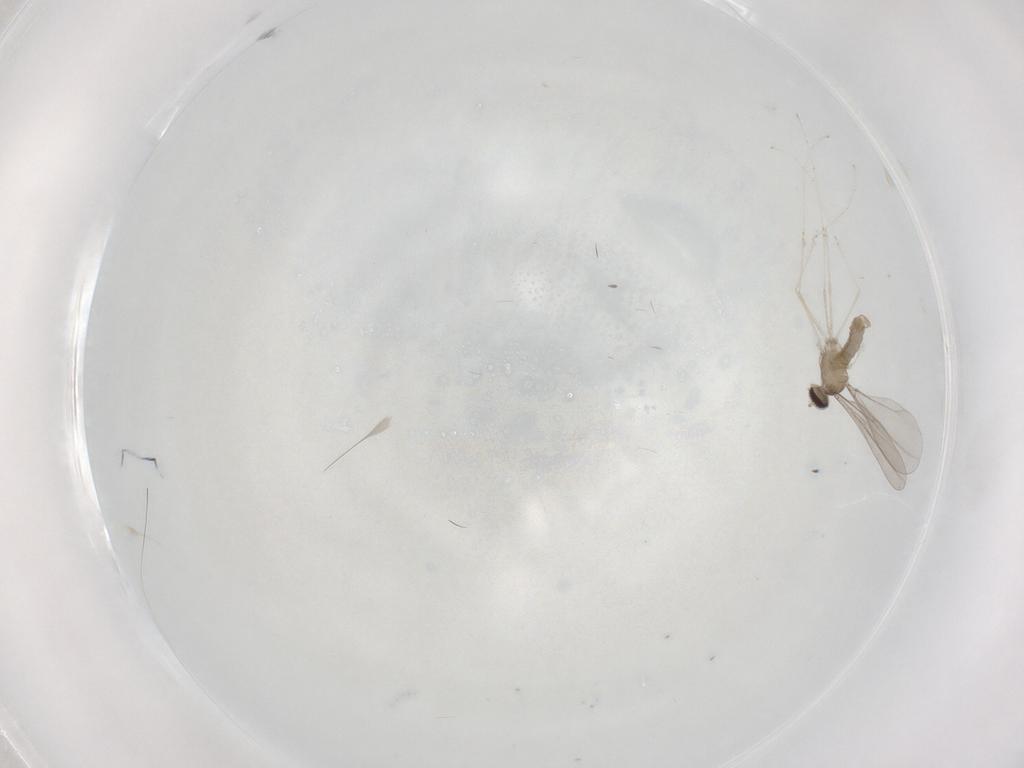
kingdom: Animalia
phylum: Arthropoda
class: Insecta
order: Diptera
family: Cecidomyiidae
